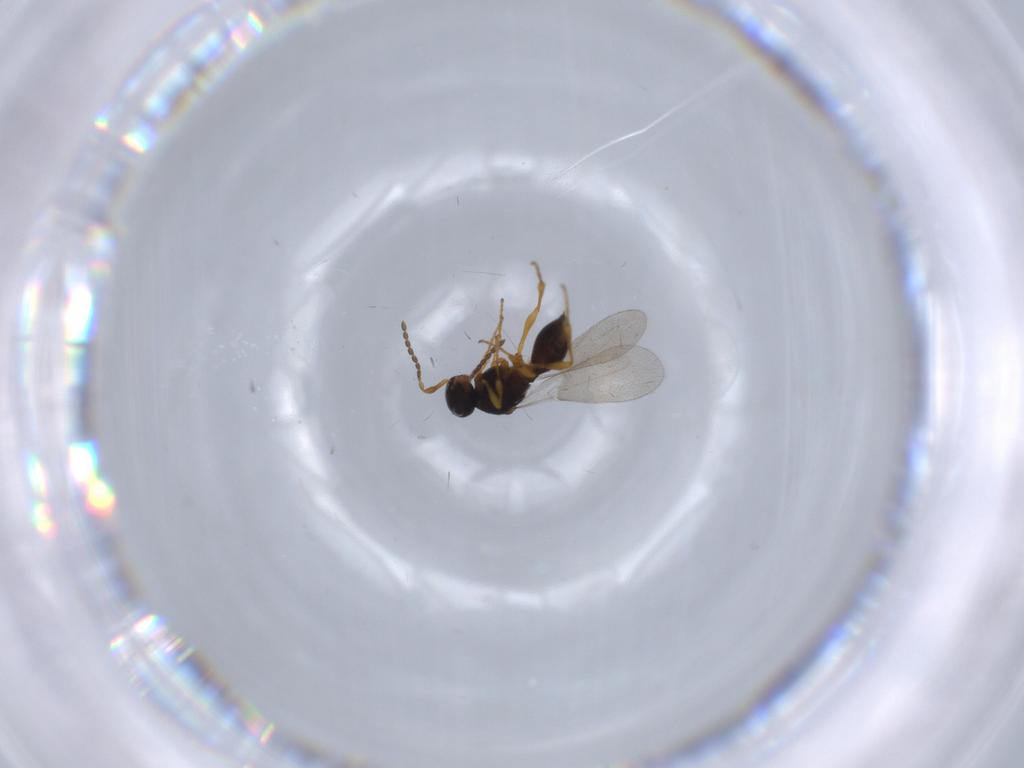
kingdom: Animalia
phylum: Arthropoda
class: Insecta
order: Diptera
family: Mythicomyiidae
